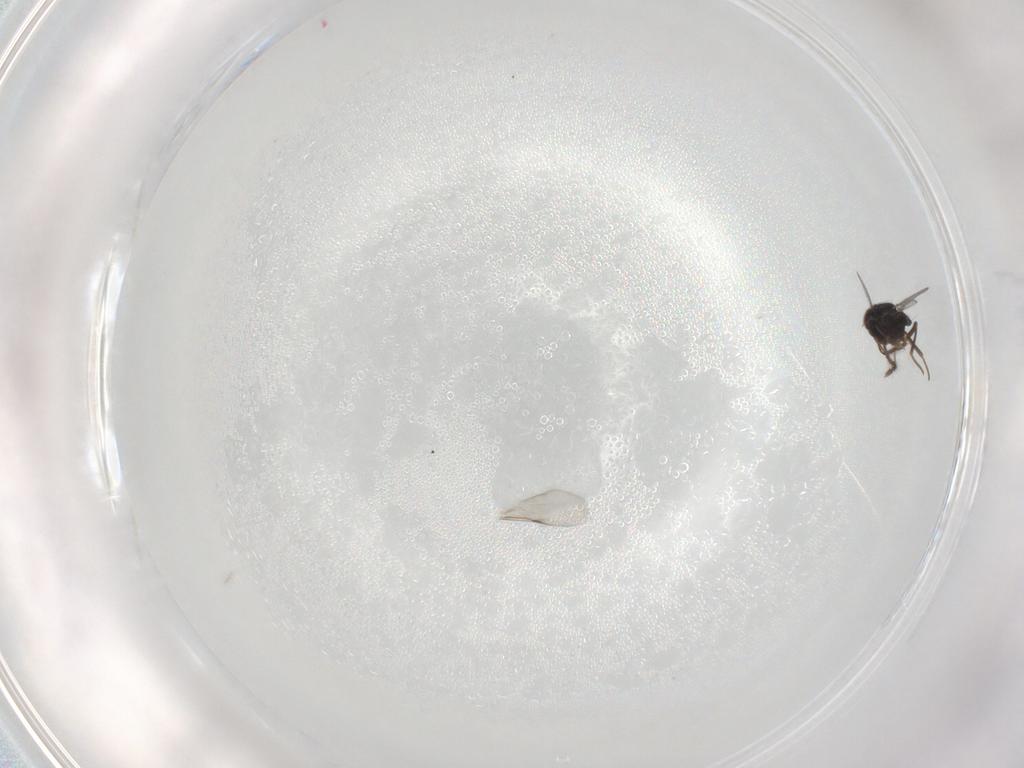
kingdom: Animalia
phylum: Arthropoda
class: Insecta
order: Hymenoptera
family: Encyrtidae
